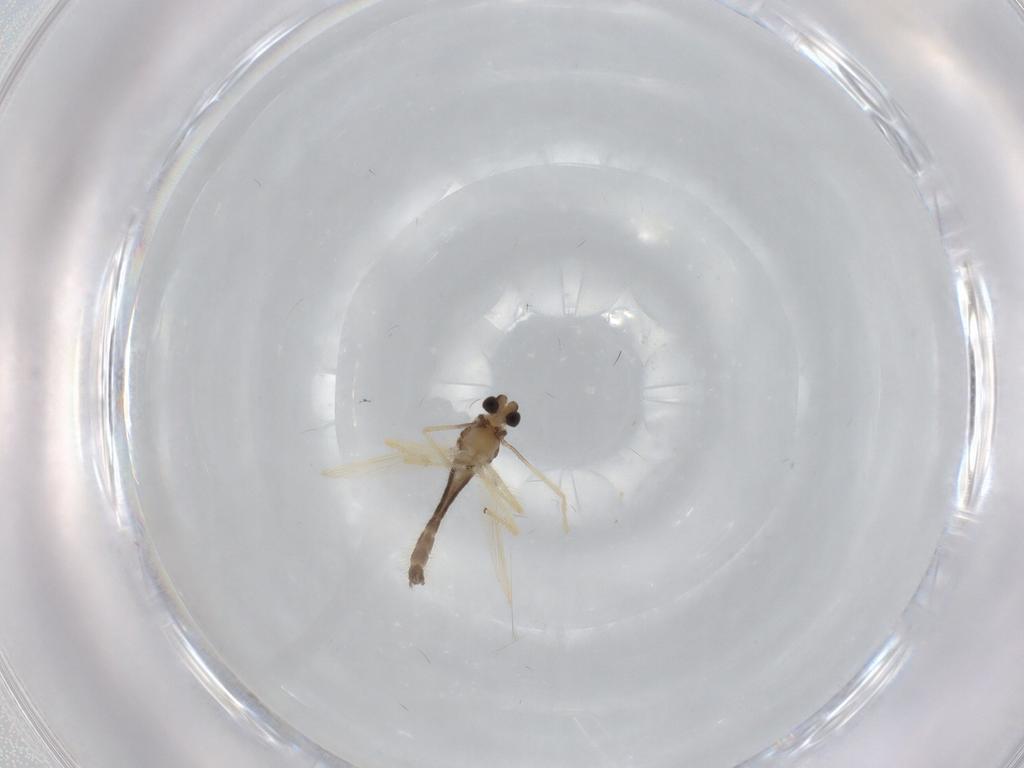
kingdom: Animalia
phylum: Arthropoda
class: Insecta
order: Diptera
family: Chironomidae
